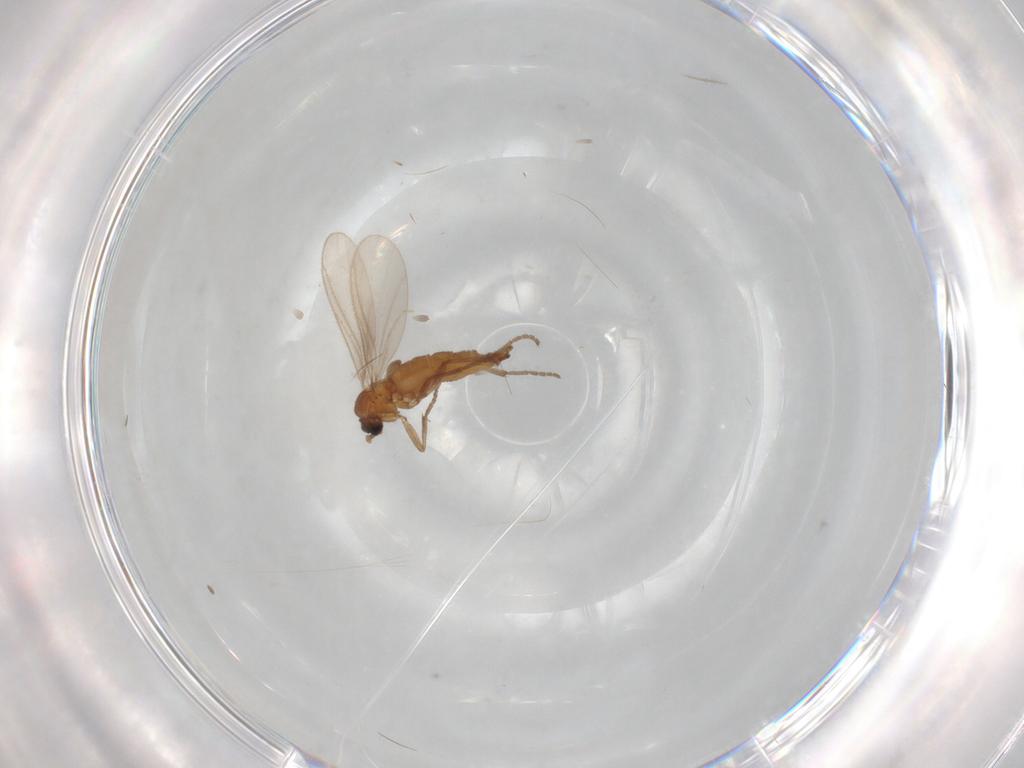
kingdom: Animalia
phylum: Arthropoda
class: Insecta
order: Diptera
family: Sciaridae
